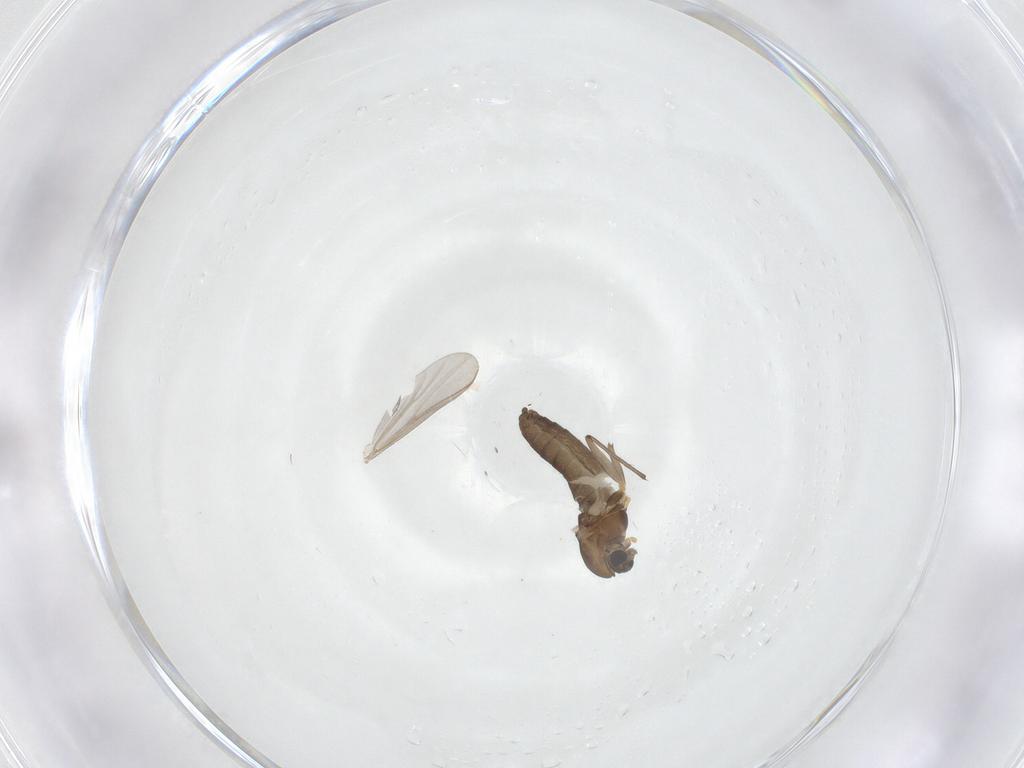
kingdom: Animalia
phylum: Arthropoda
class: Insecta
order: Diptera
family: Chironomidae
